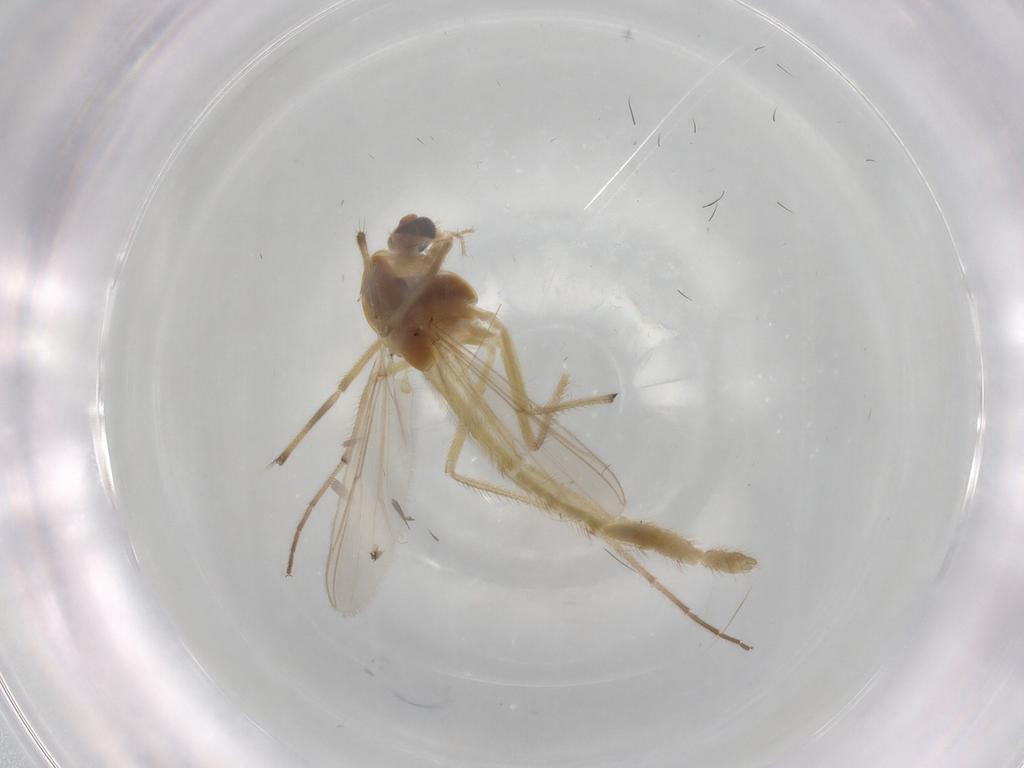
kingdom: Animalia
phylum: Arthropoda
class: Insecta
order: Diptera
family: Chironomidae
